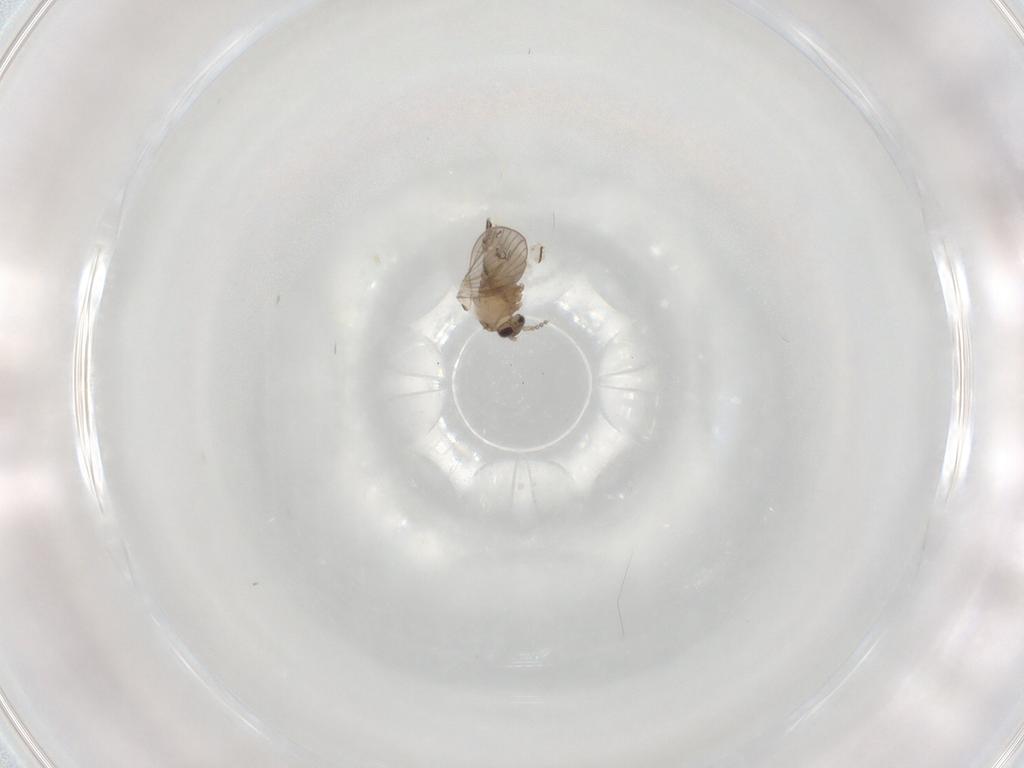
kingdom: Animalia
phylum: Arthropoda
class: Insecta
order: Diptera
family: Psychodidae
